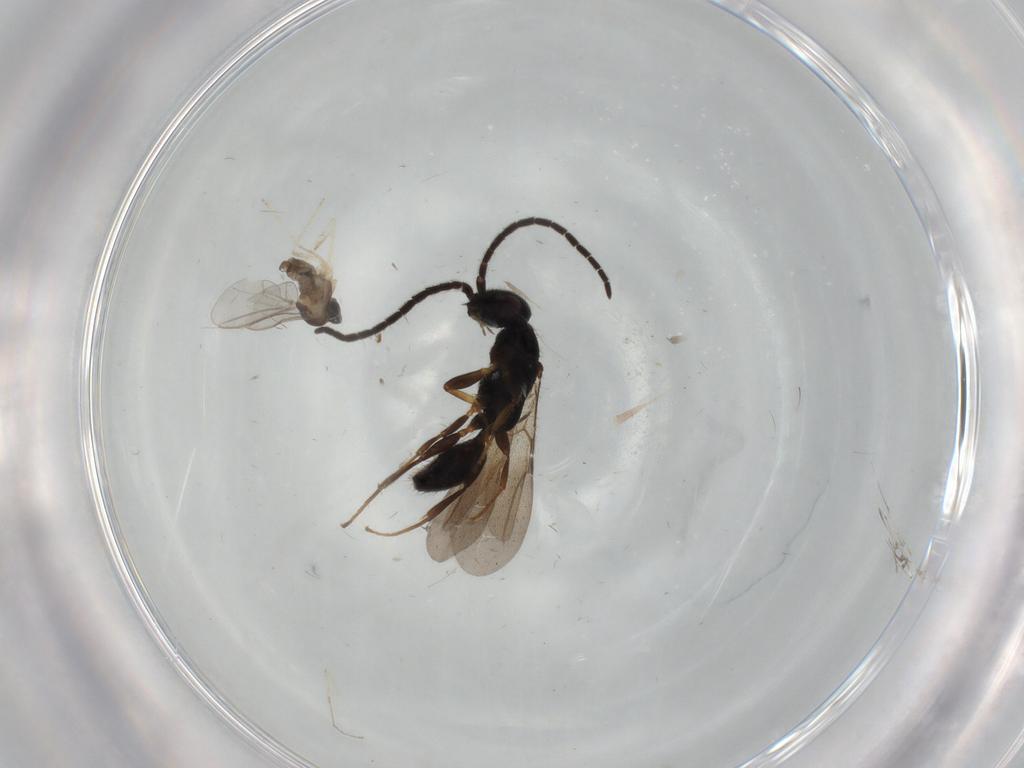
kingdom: Animalia
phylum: Arthropoda
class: Insecta
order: Hymenoptera
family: Bethylidae
